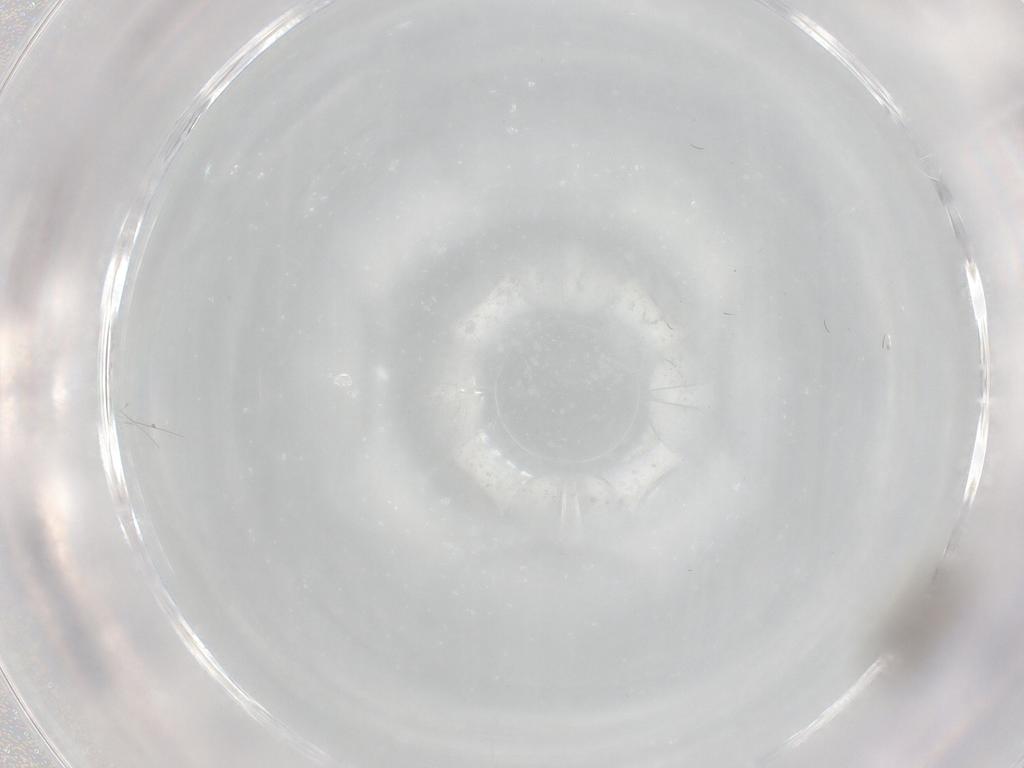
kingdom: Animalia
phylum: Arthropoda
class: Insecta
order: Diptera
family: Cecidomyiidae
